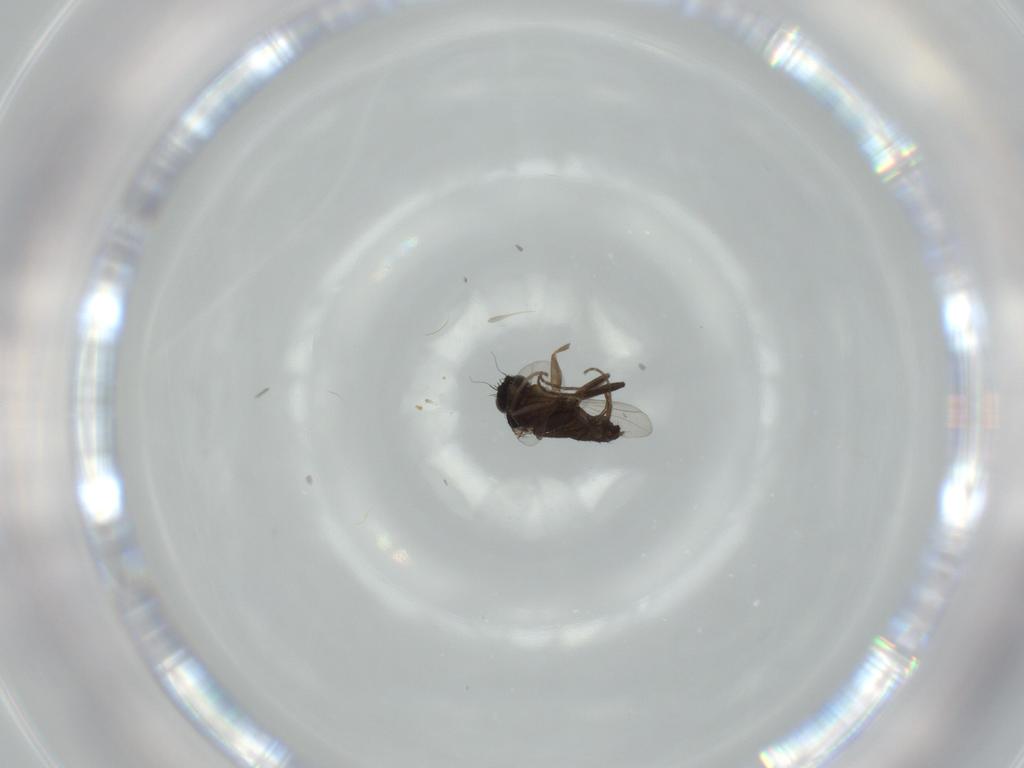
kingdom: Animalia
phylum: Arthropoda
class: Insecta
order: Diptera
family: Phoridae
